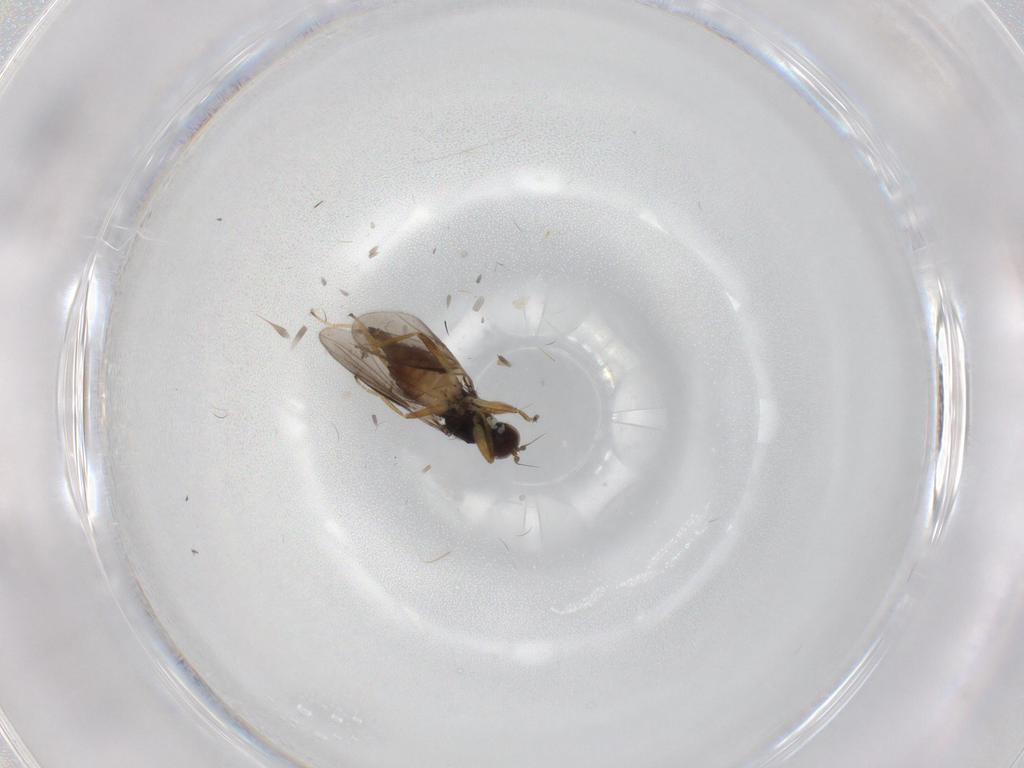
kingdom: Animalia
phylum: Arthropoda
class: Insecta
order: Diptera
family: Hybotidae
